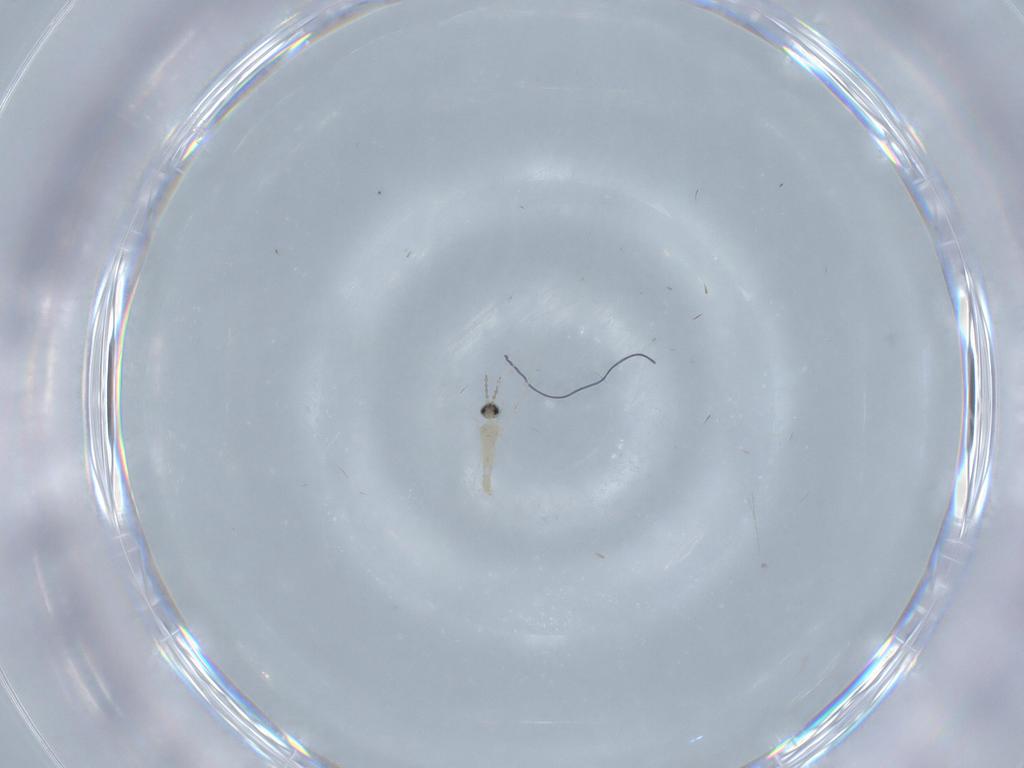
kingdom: Animalia
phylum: Arthropoda
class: Insecta
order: Diptera
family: Cecidomyiidae
